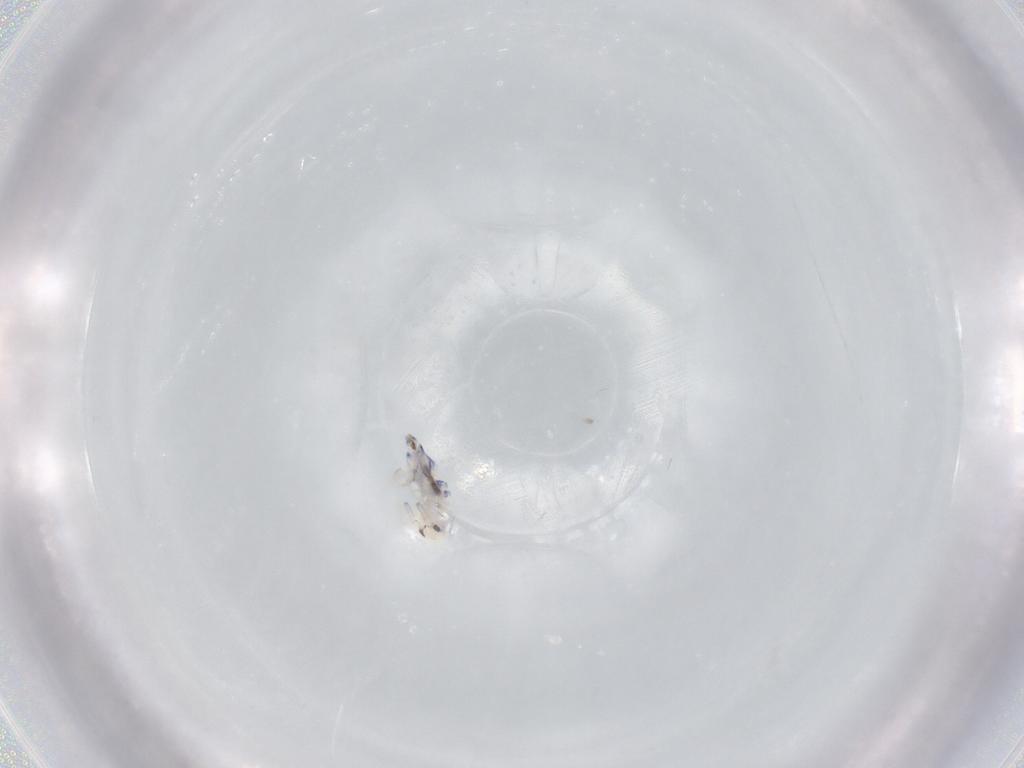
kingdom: Animalia
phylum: Arthropoda
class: Collembola
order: Entomobryomorpha
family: Entomobryidae
